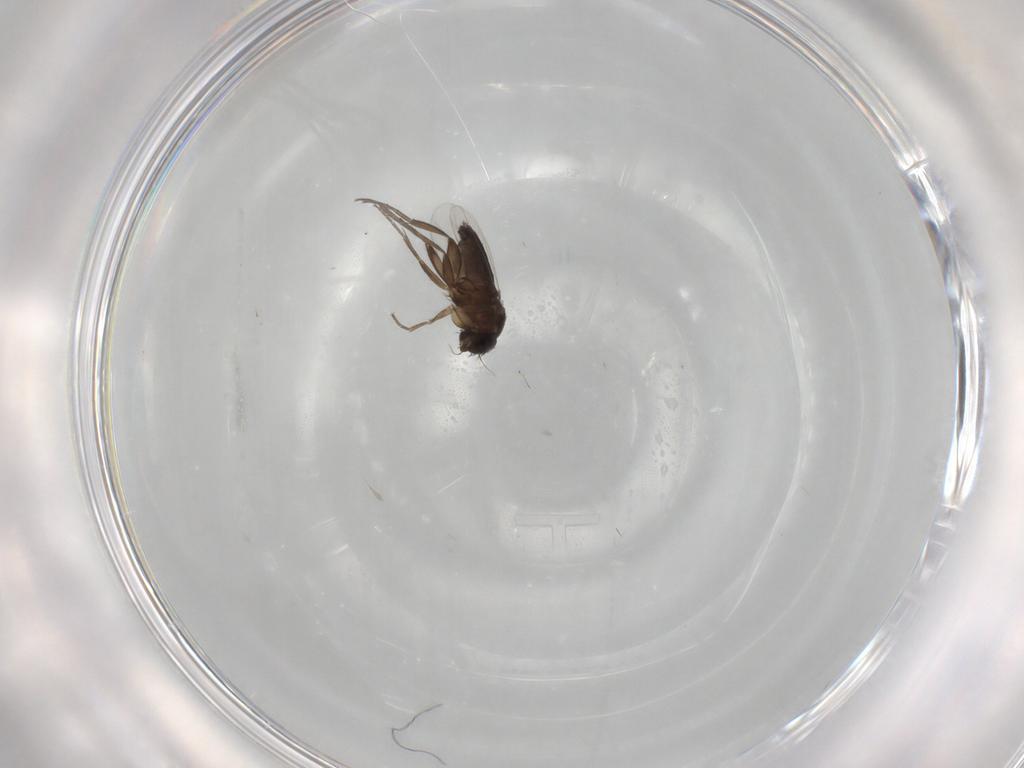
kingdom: Animalia
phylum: Arthropoda
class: Insecta
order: Diptera
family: Phoridae
